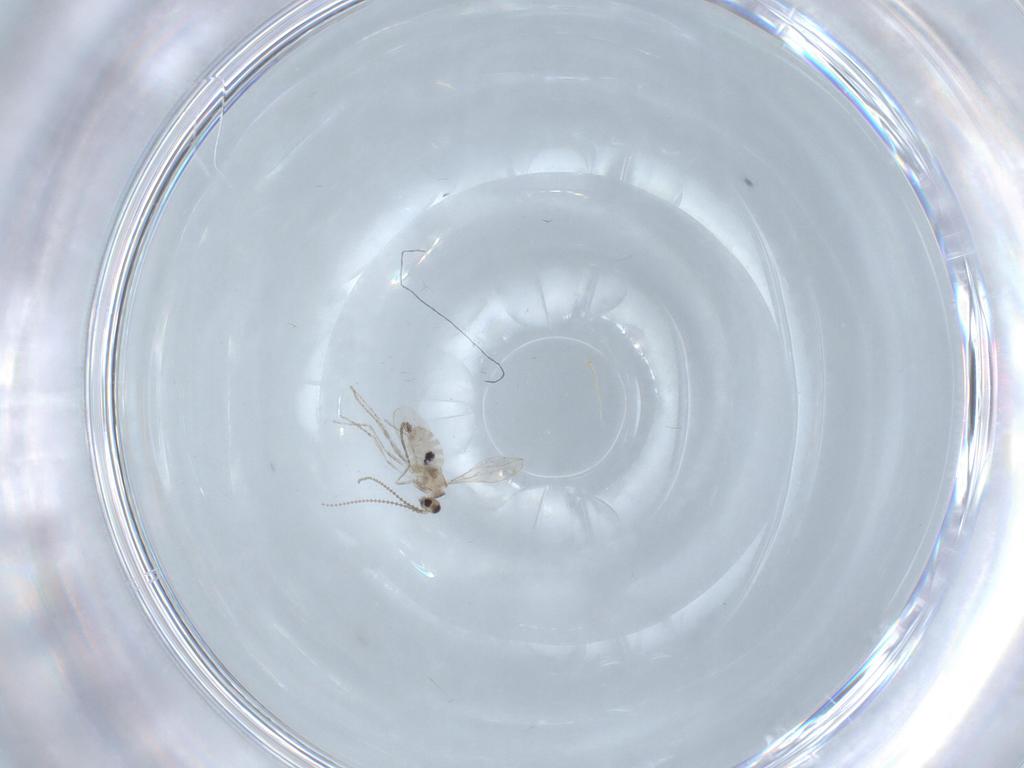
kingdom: Animalia
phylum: Arthropoda
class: Insecta
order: Diptera
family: Cecidomyiidae
